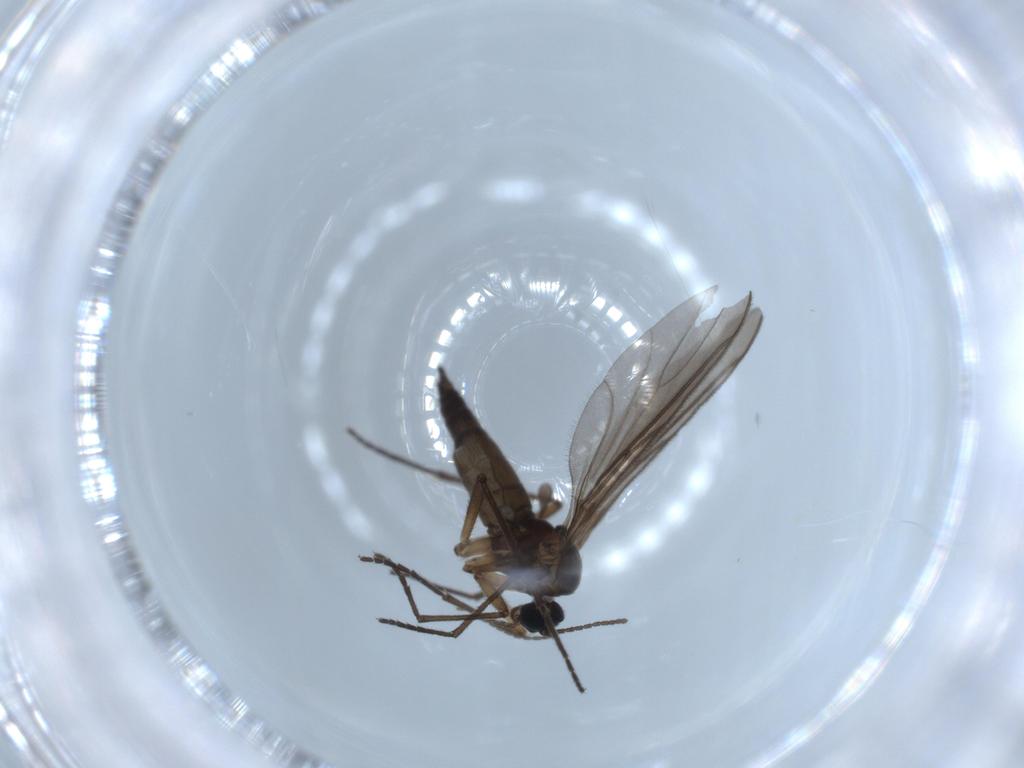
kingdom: Animalia
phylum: Arthropoda
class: Insecta
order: Diptera
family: Sciaridae
